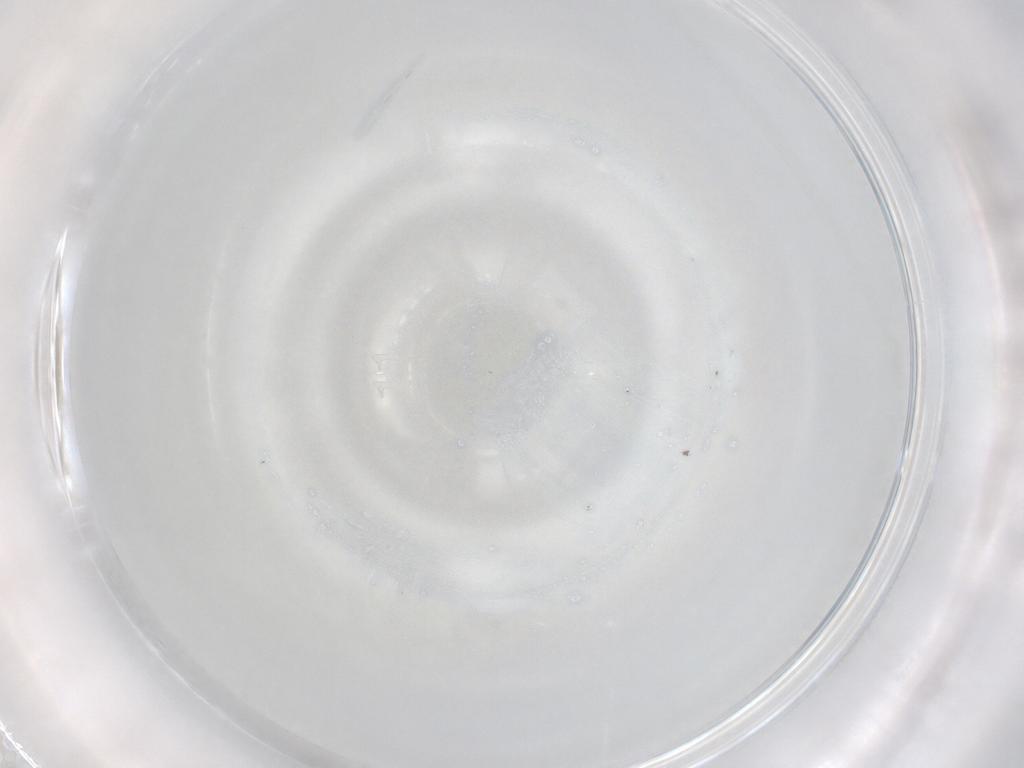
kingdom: Animalia
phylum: Arthropoda
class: Insecta
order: Diptera
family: Drosophilidae
